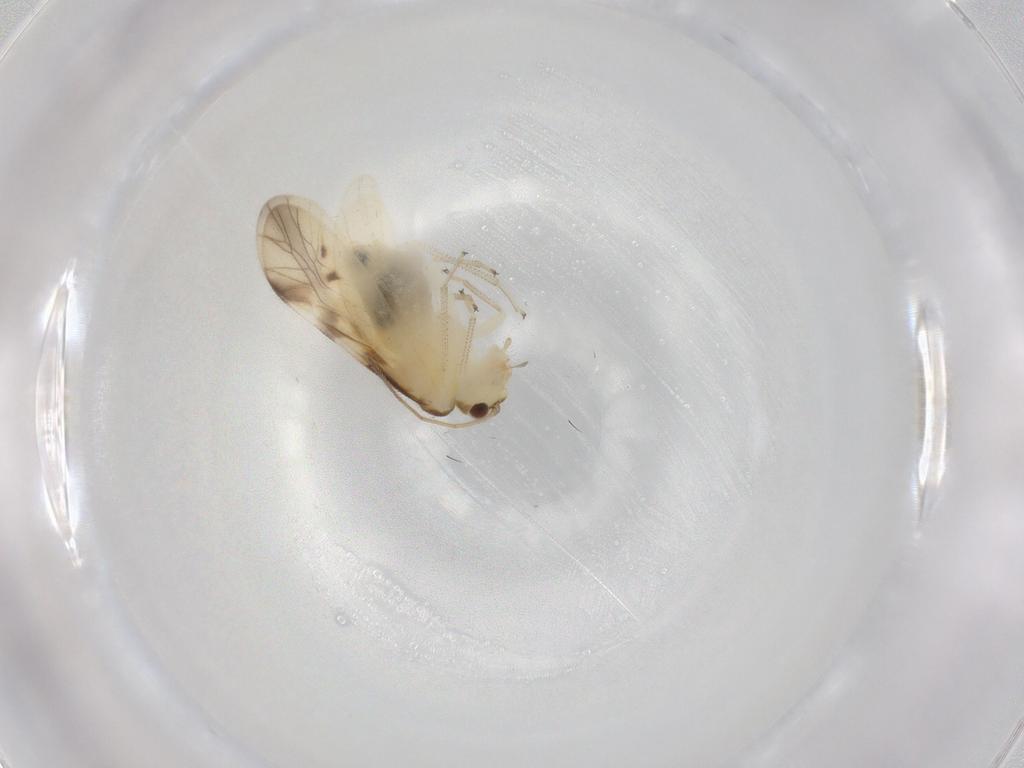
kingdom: Animalia
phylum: Arthropoda
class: Insecta
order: Psocodea
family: Caeciliusidae
